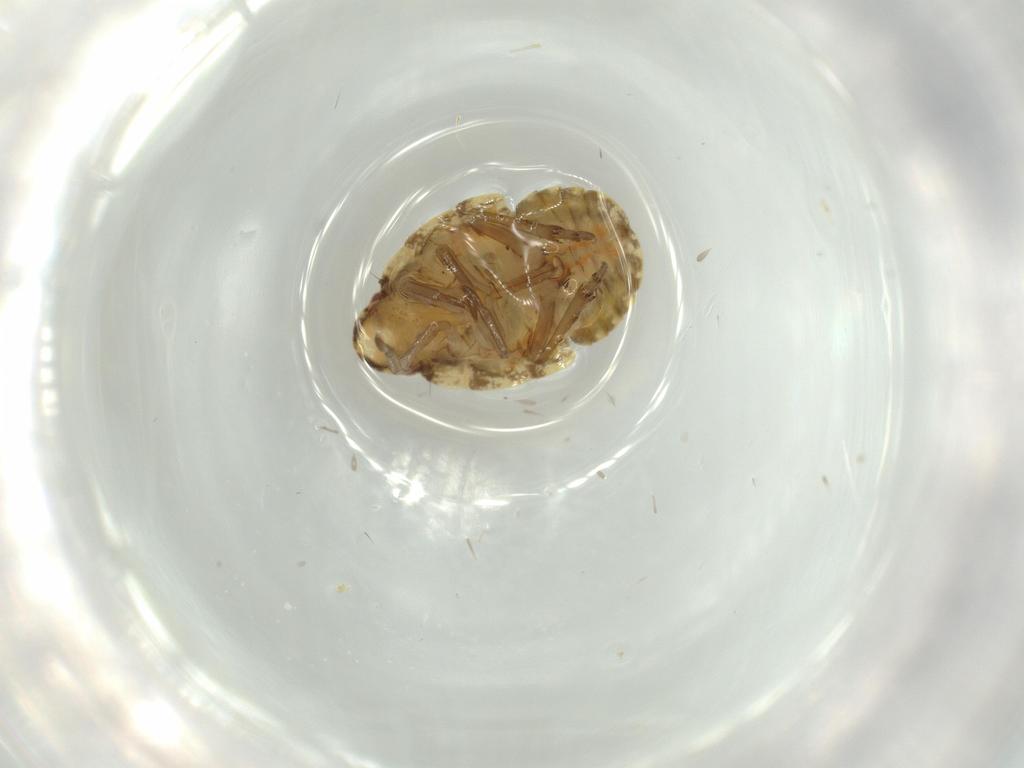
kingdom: Animalia
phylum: Arthropoda
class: Insecta
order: Hemiptera
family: Flatidae
